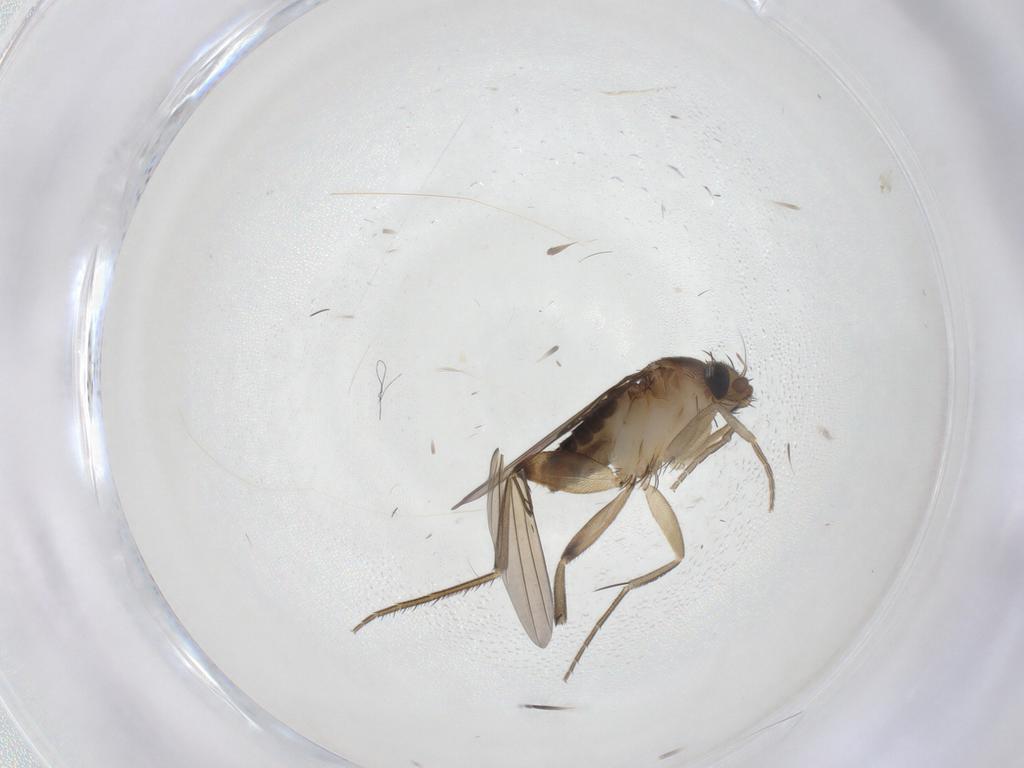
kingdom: Animalia
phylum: Arthropoda
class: Insecta
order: Diptera
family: Phoridae
